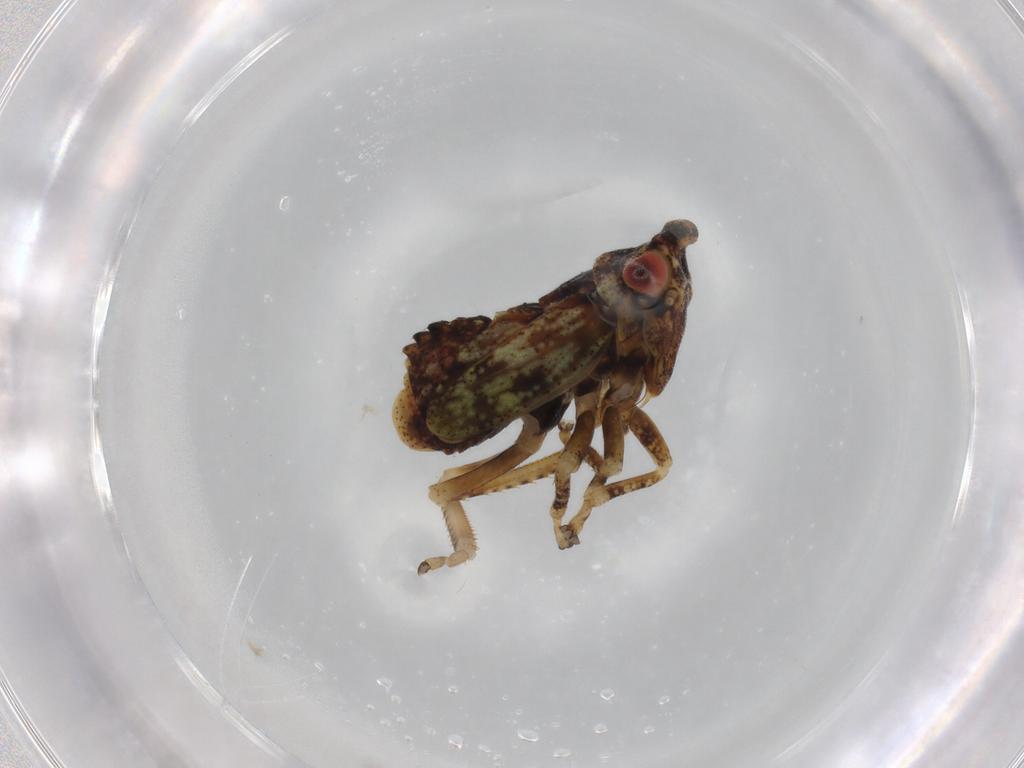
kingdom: Animalia
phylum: Arthropoda
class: Insecta
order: Hemiptera
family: Cicadellidae
